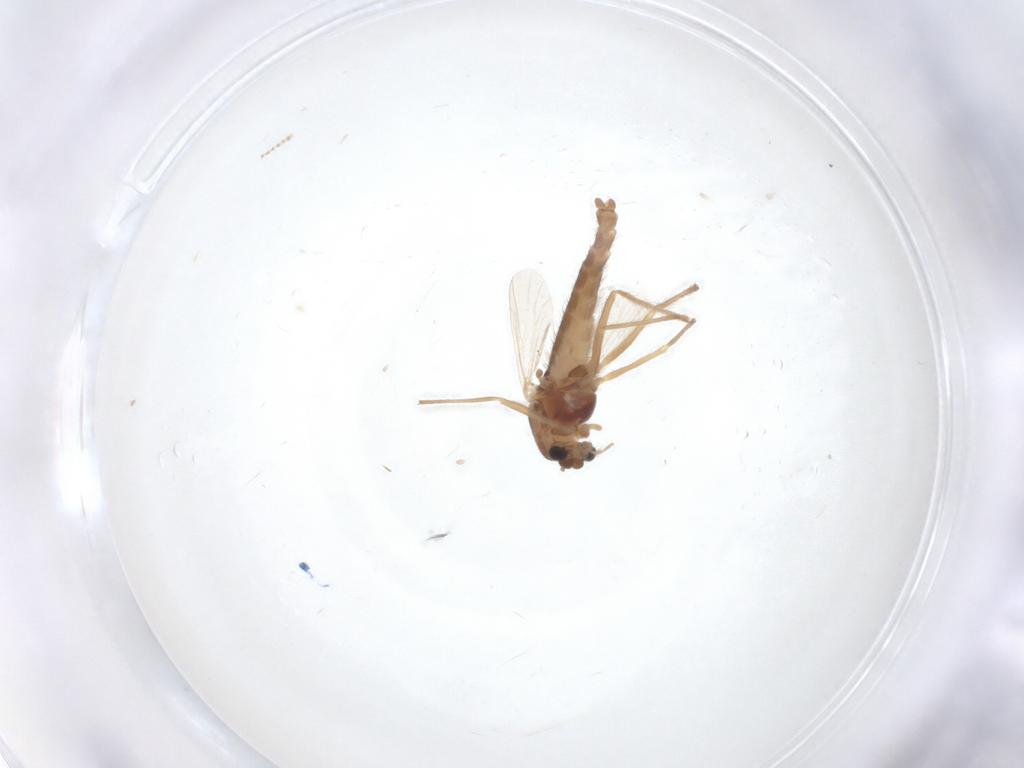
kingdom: Animalia
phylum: Arthropoda
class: Insecta
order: Diptera
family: Chironomidae
